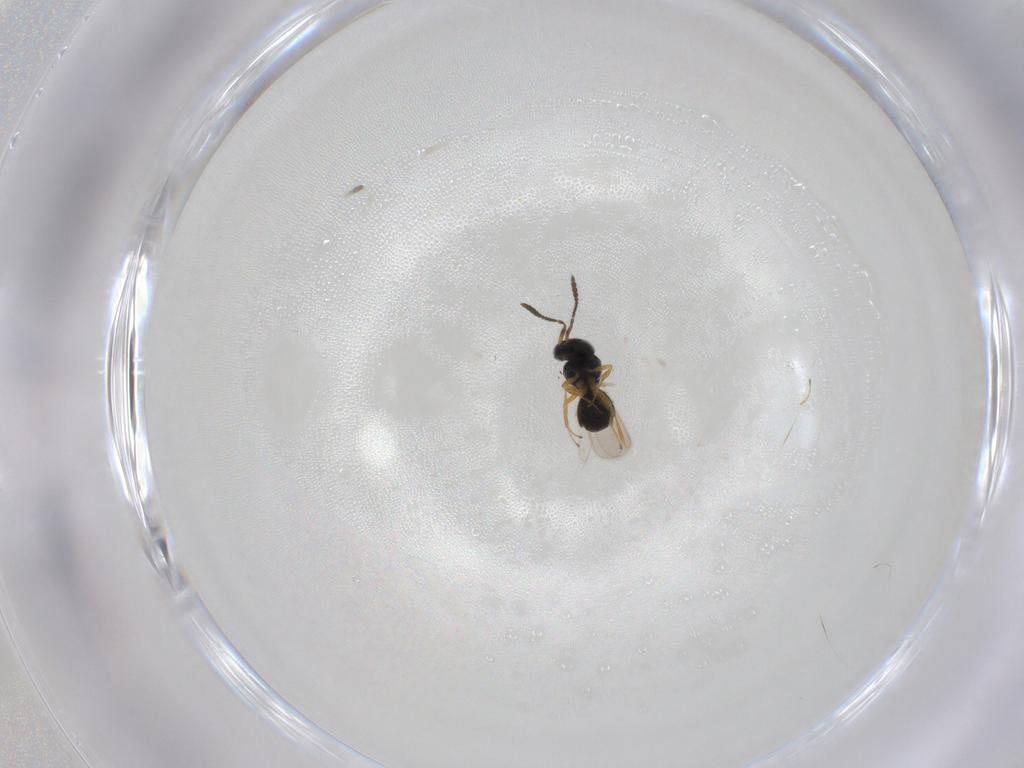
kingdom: Animalia
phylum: Arthropoda
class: Insecta
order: Hymenoptera
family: Scelionidae
